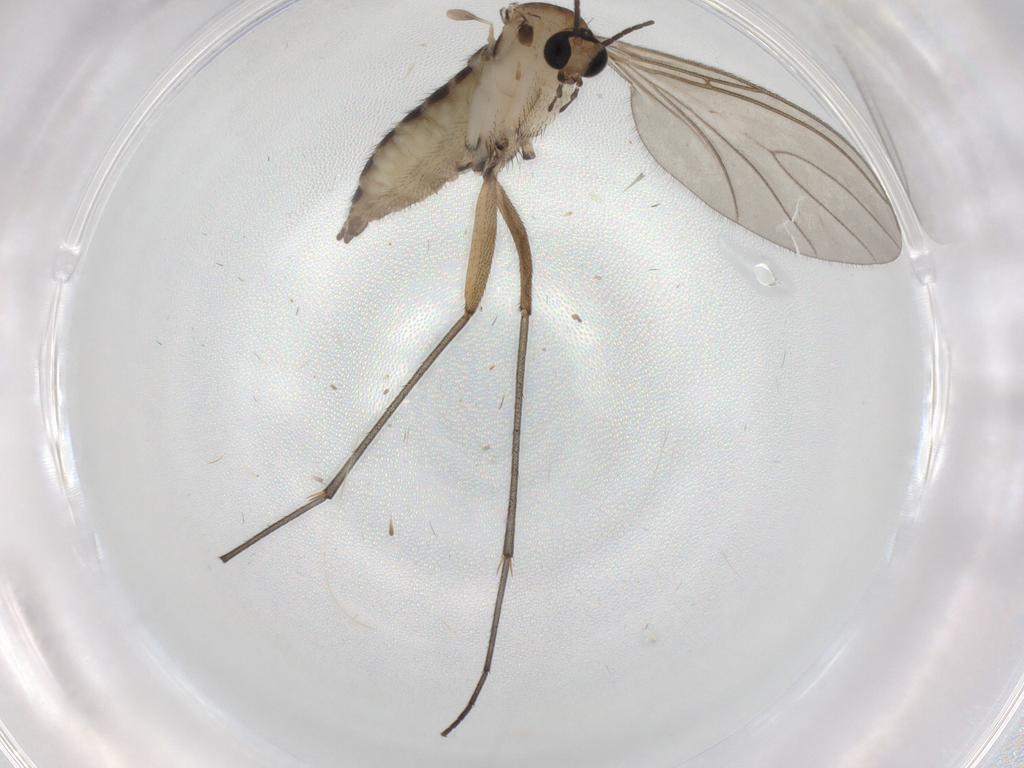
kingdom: Animalia
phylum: Arthropoda
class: Insecta
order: Diptera
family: Sciaridae
